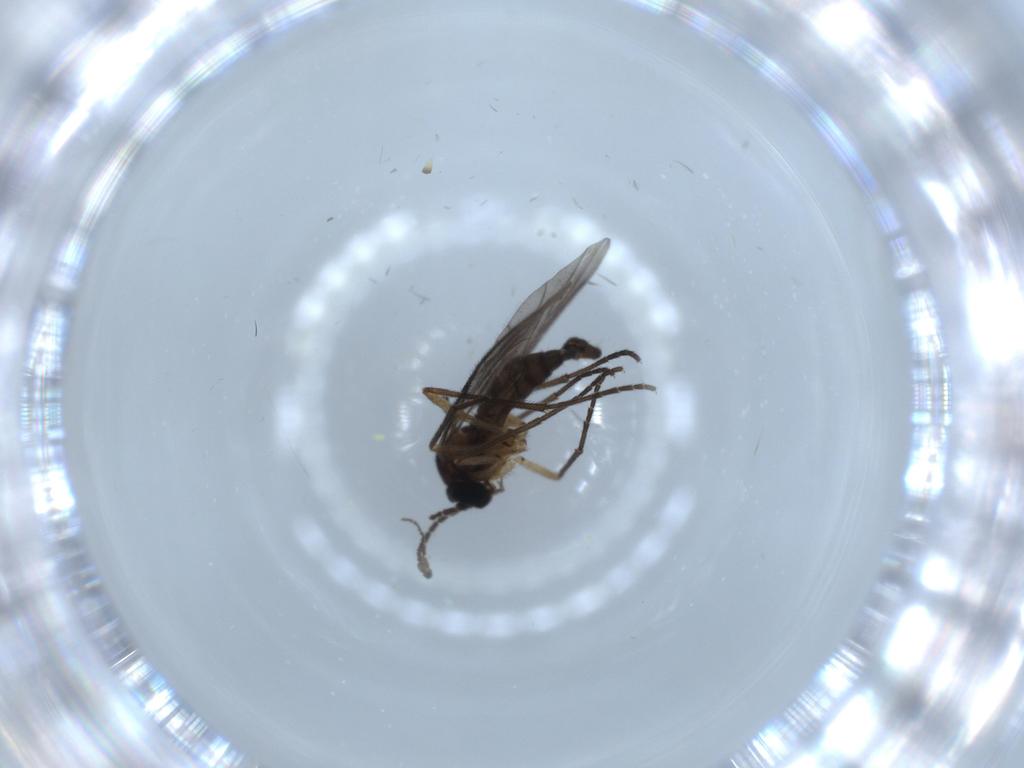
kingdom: Animalia
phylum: Arthropoda
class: Insecta
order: Diptera
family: Sciaridae
